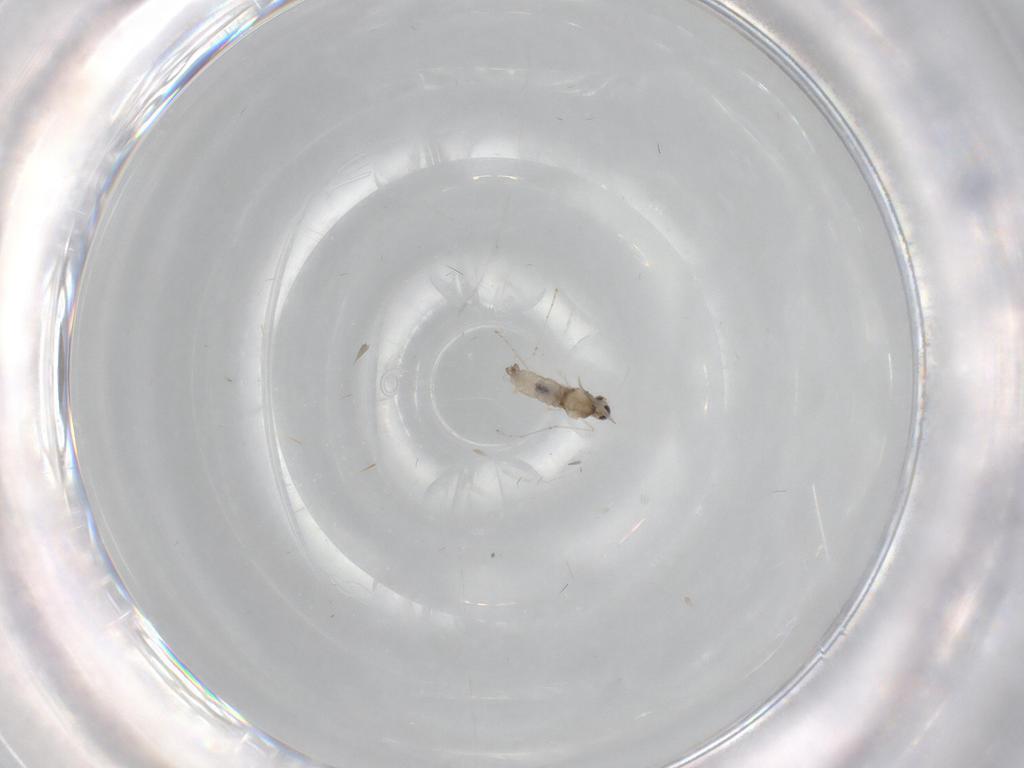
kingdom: Animalia
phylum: Arthropoda
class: Insecta
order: Diptera
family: Cecidomyiidae
